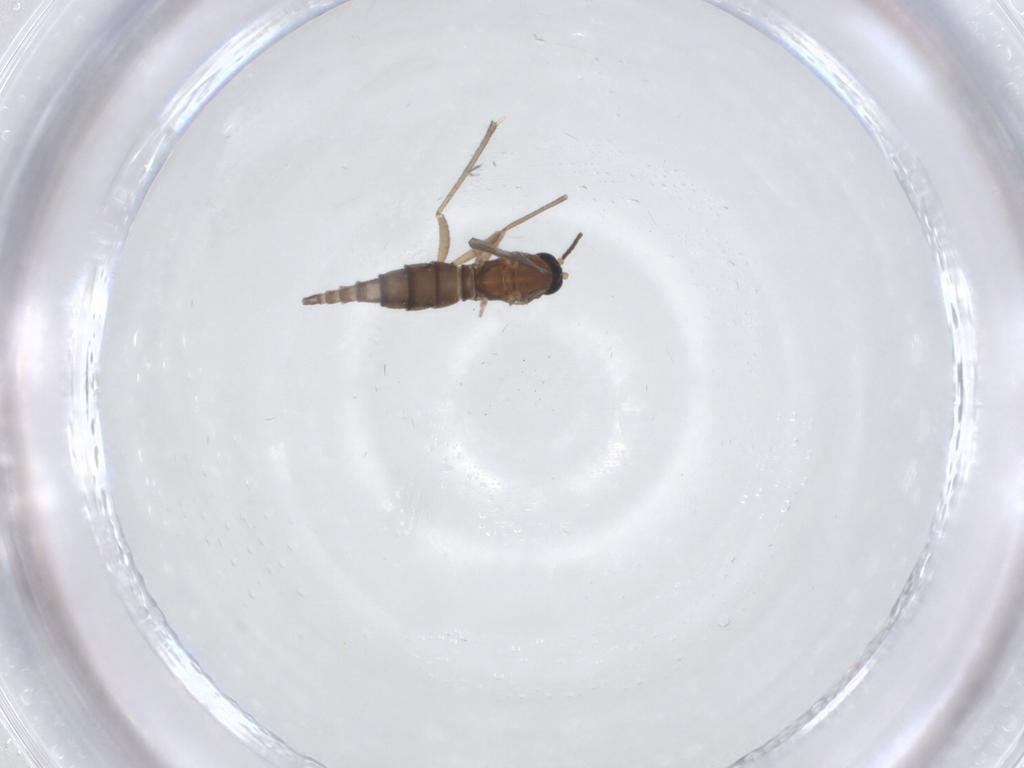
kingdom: Animalia
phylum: Arthropoda
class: Insecta
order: Diptera
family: Sciaridae
